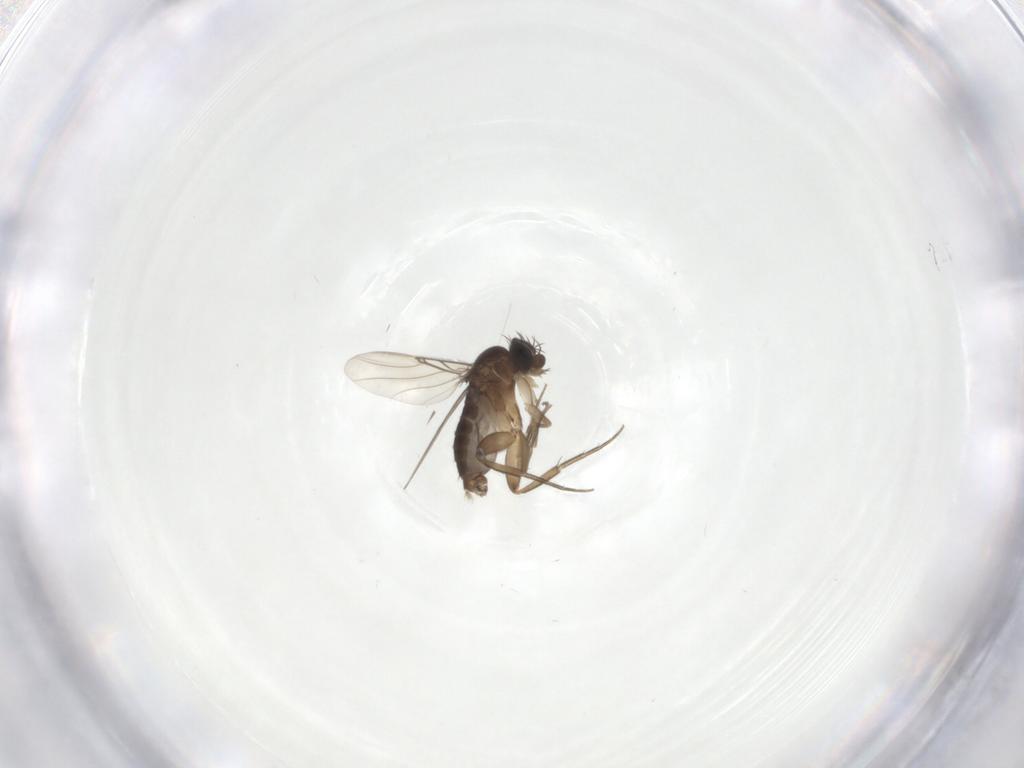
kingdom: Animalia
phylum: Arthropoda
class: Insecta
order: Diptera
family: Phoridae
